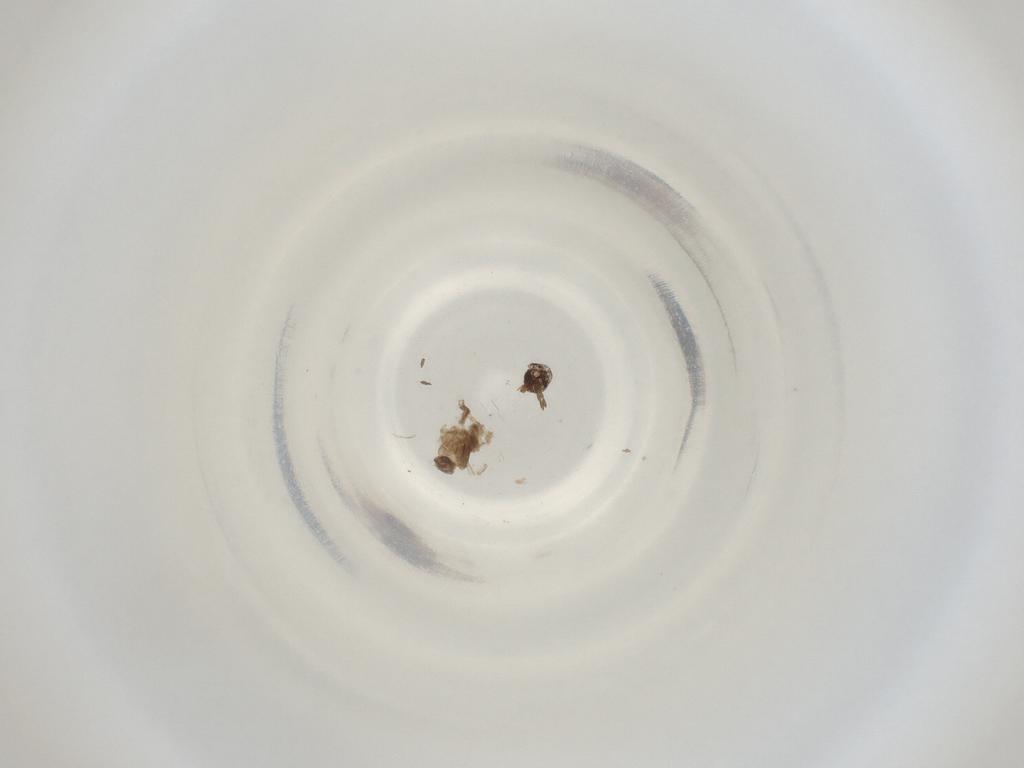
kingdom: Animalia
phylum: Arthropoda
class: Insecta
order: Diptera
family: Cecidomyiidae
